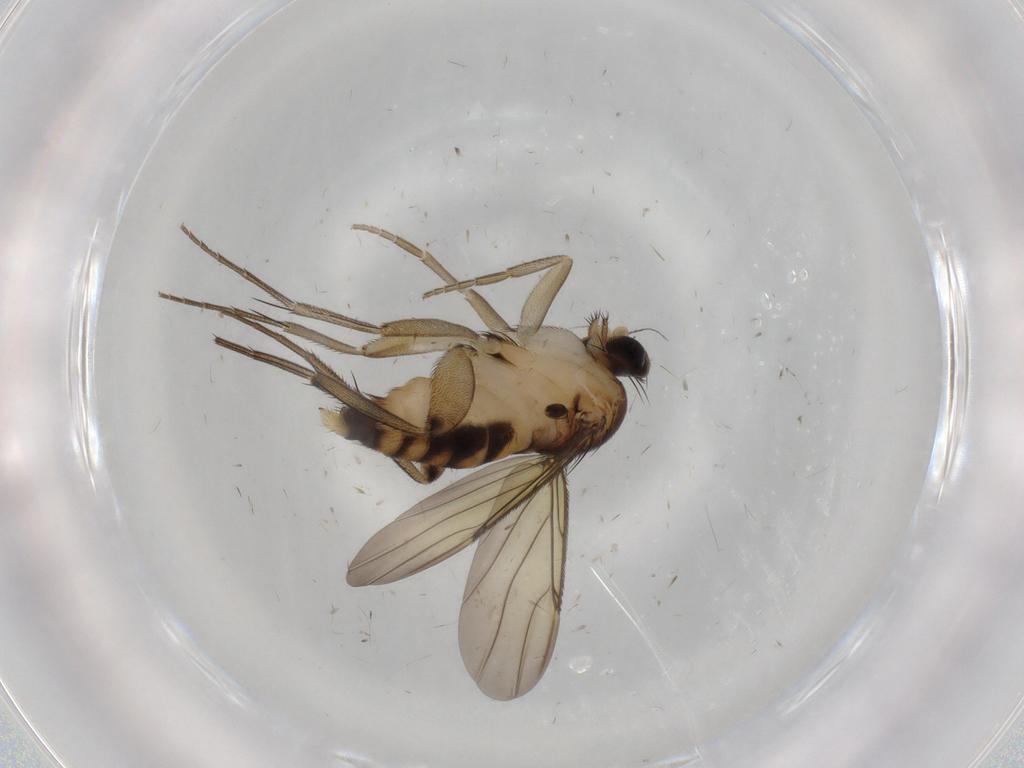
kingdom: Animalia
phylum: Arthropoda
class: Insecta
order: Diptera
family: Phoridae
